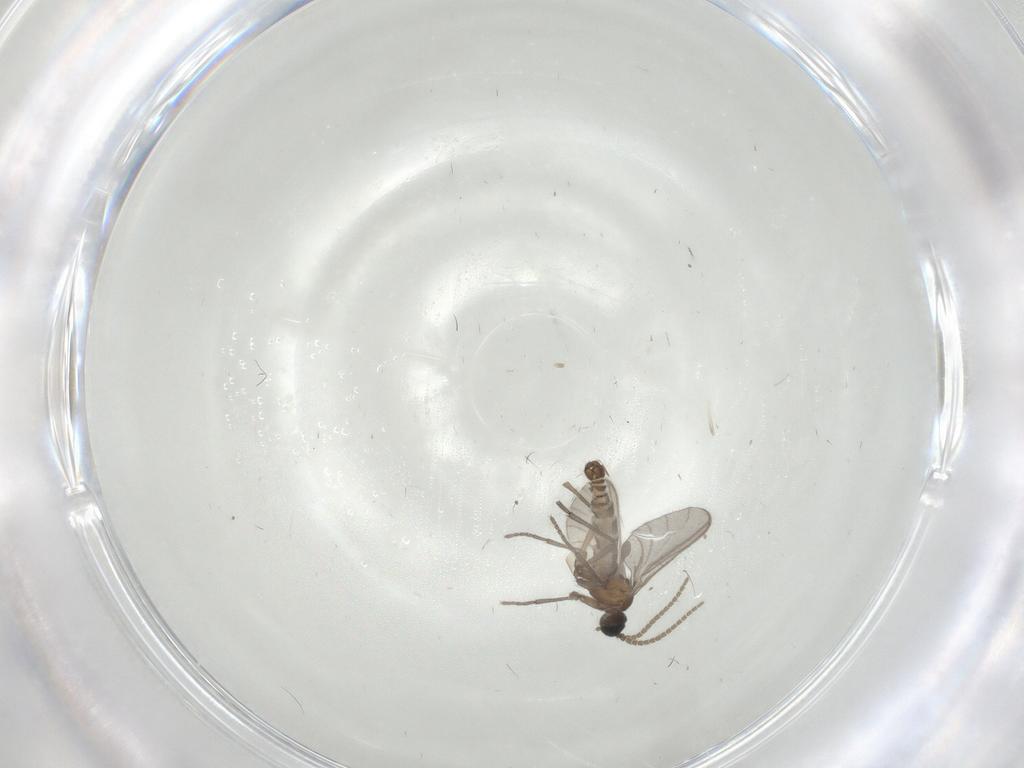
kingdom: Animalia
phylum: Arthropoda
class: Insecta
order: Diptera
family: Sciaridae
